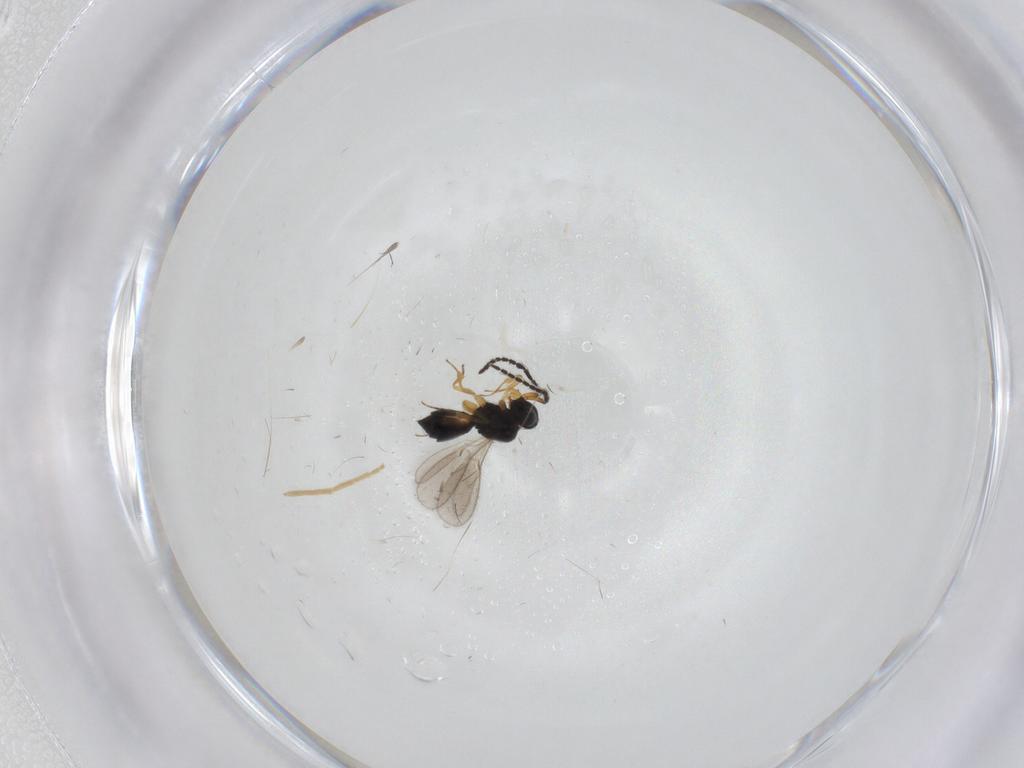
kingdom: Animalia
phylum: Arthropoda
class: Insecta
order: Hymenoptera
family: Scelionidae
